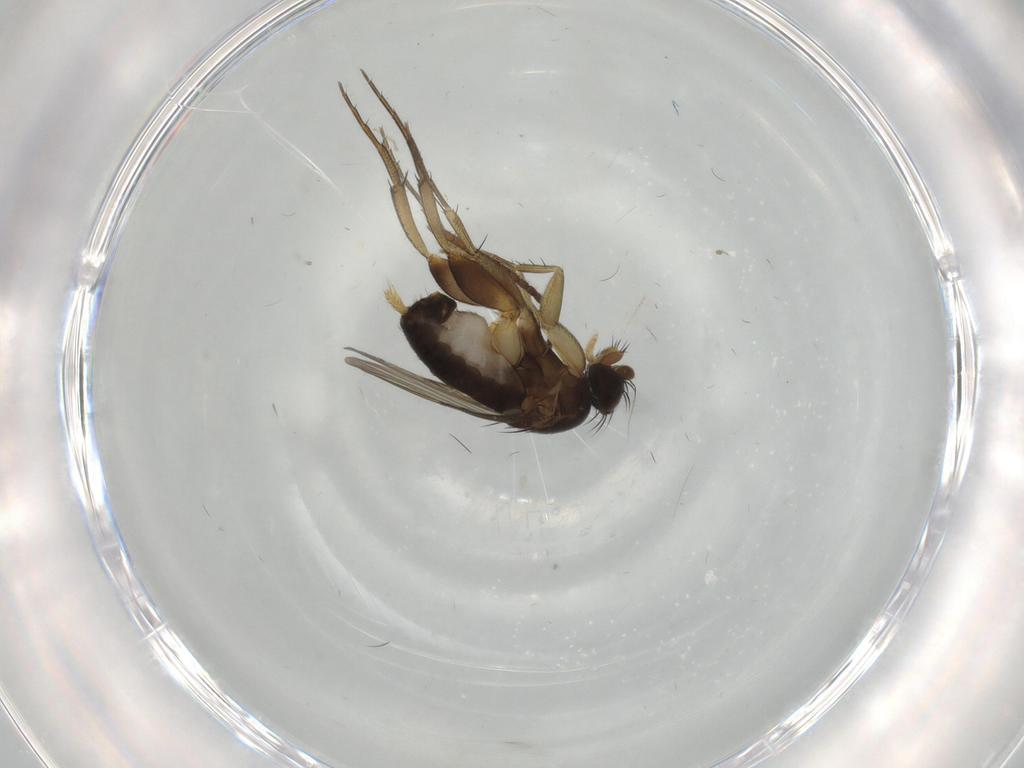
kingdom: Animalia
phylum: Arthropoda
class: Insecta
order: Diptera
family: Phoridae
